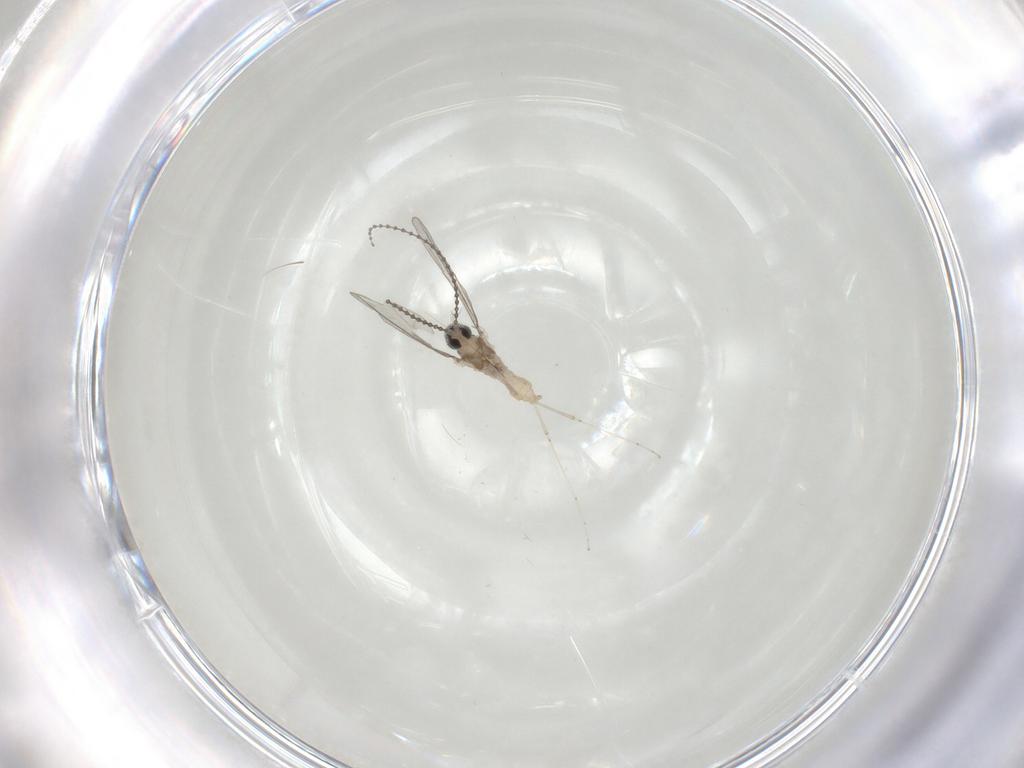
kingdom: Animalia
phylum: Arthropoda
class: Insecta
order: Diptera
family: Cecidomyiidae
